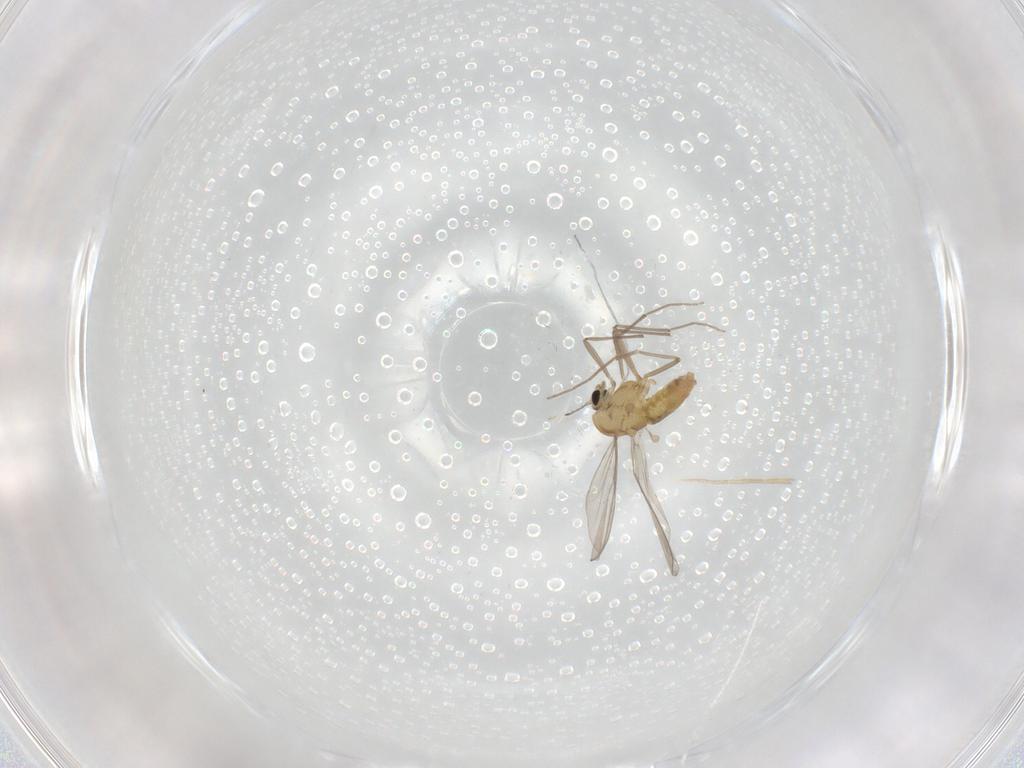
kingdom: Animalia
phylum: Arthropoda
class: Insecta
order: Diptera
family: Chironomidae
